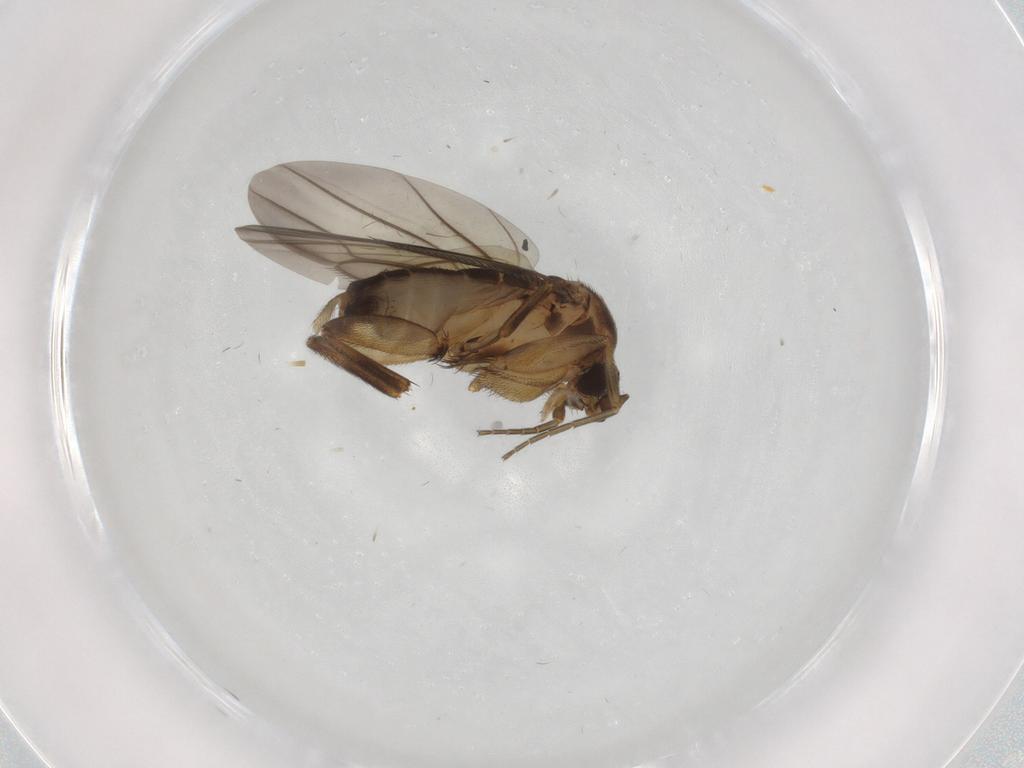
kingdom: Animalia
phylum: Arthropoda
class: Insecta
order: Diptera
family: Phoridae
